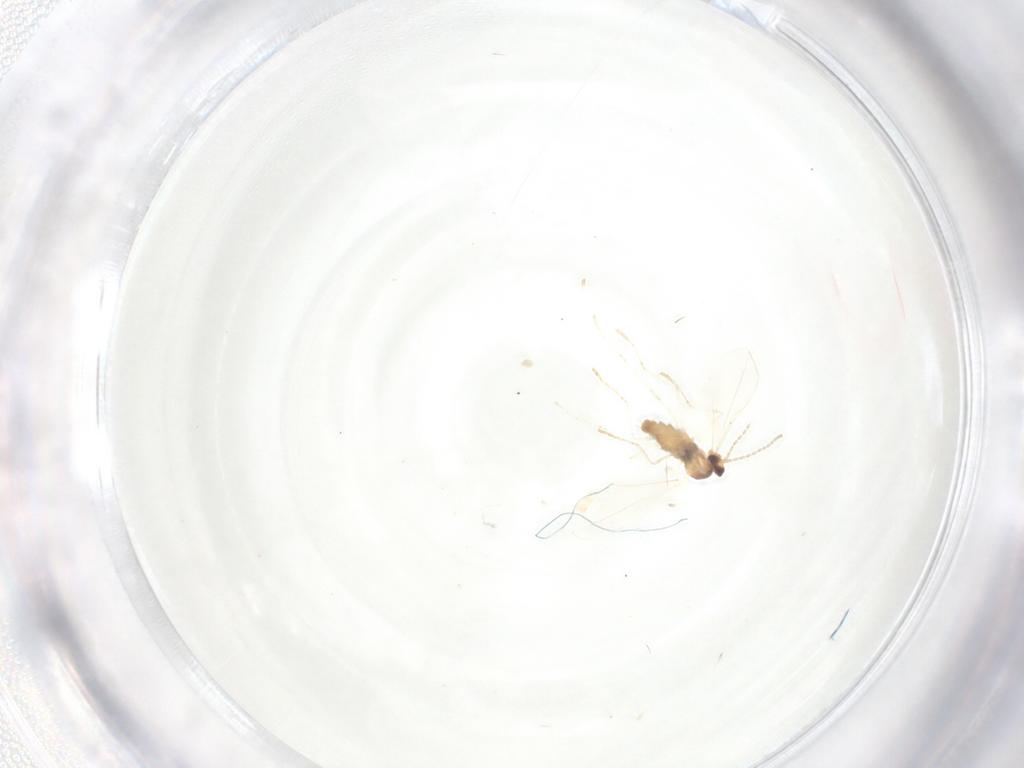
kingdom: Animalia
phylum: Arthropoda
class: Insecta
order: Diptera
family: Cecidomyiidae
